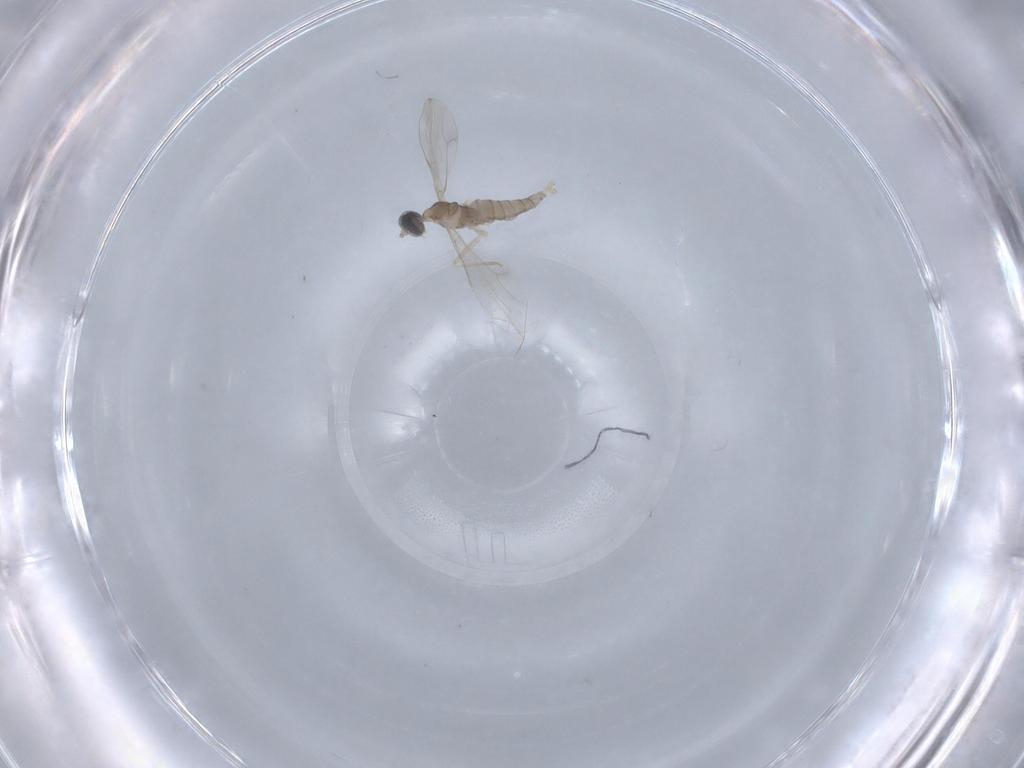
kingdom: Animalia
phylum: Arthropoda
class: Insecta
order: Diptera
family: Cecidomyiidae
